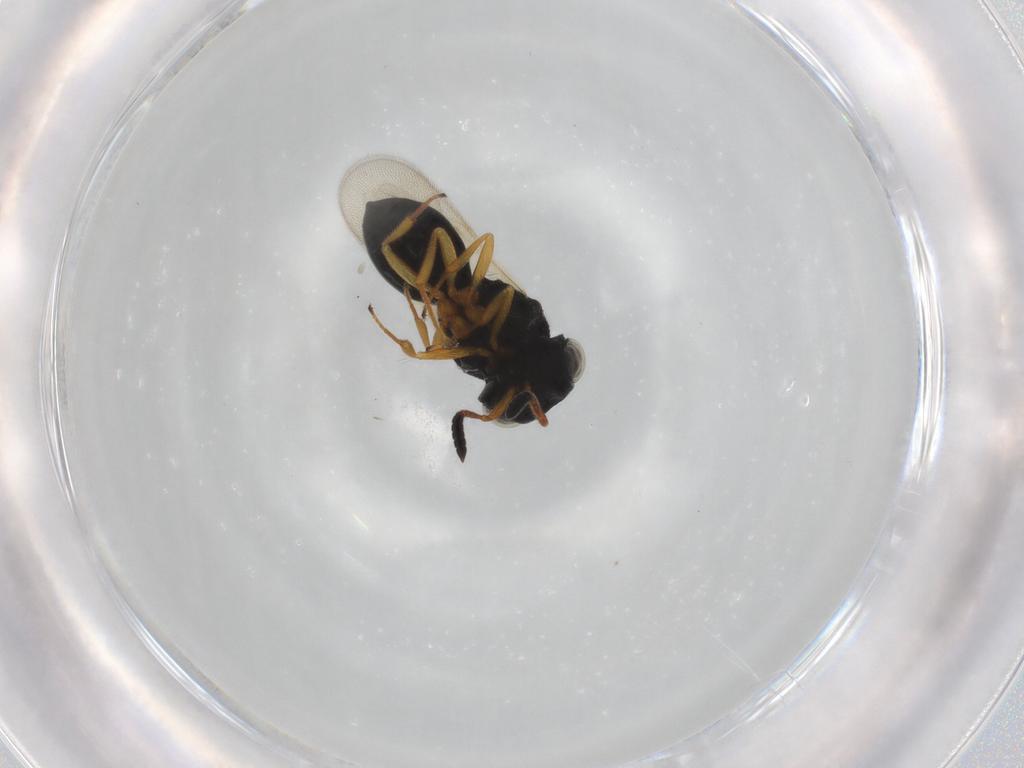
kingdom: Animalia
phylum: Arthropoda
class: Insecta
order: Hymenoptera
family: Scelionidae
